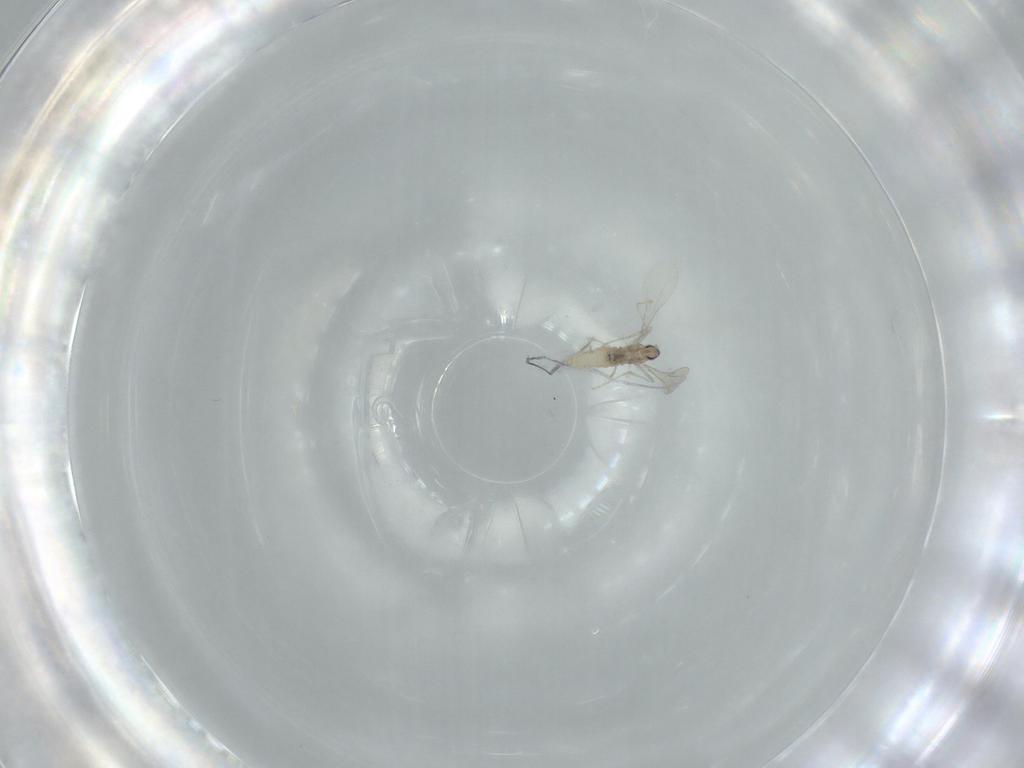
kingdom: Animalia
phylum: Arthropoda
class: Insecta
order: Diptera
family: Cecidomyiidae
